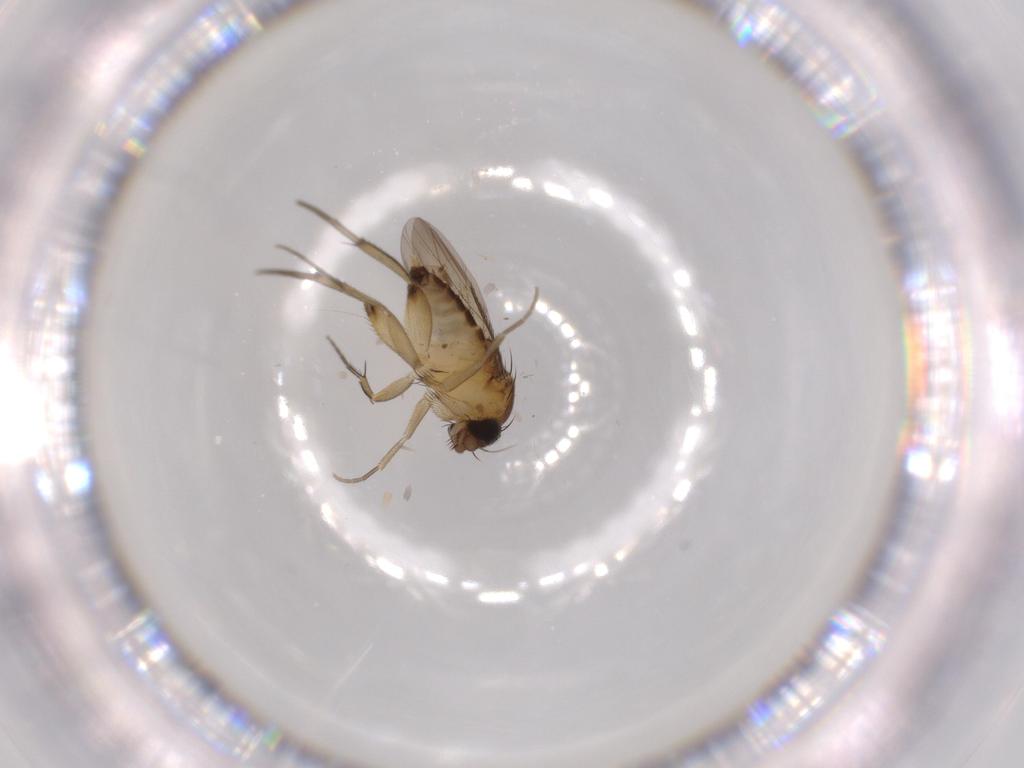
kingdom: Animalia
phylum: Arthropoda
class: Insecta
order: Diptera
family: Phoridae
